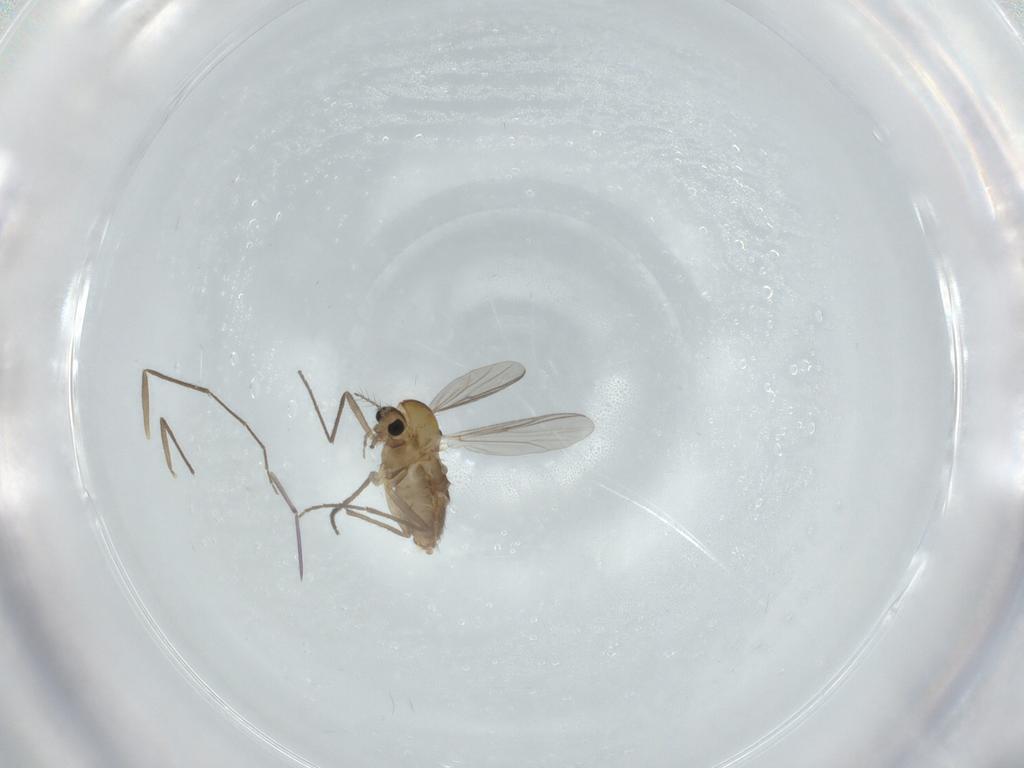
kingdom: Animalia
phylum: Arthropoda
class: Insecta
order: Diptera
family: Chironomidae
